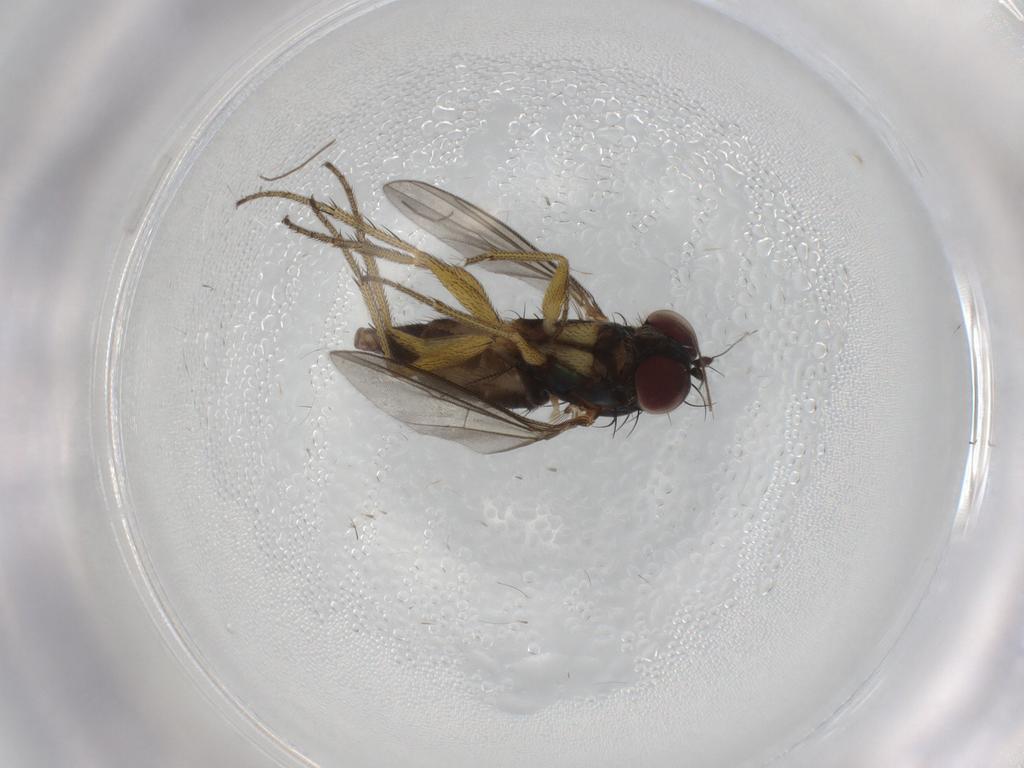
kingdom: Animalia
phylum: Arthropoda
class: Insecta
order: Diptera
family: Chironomidae
